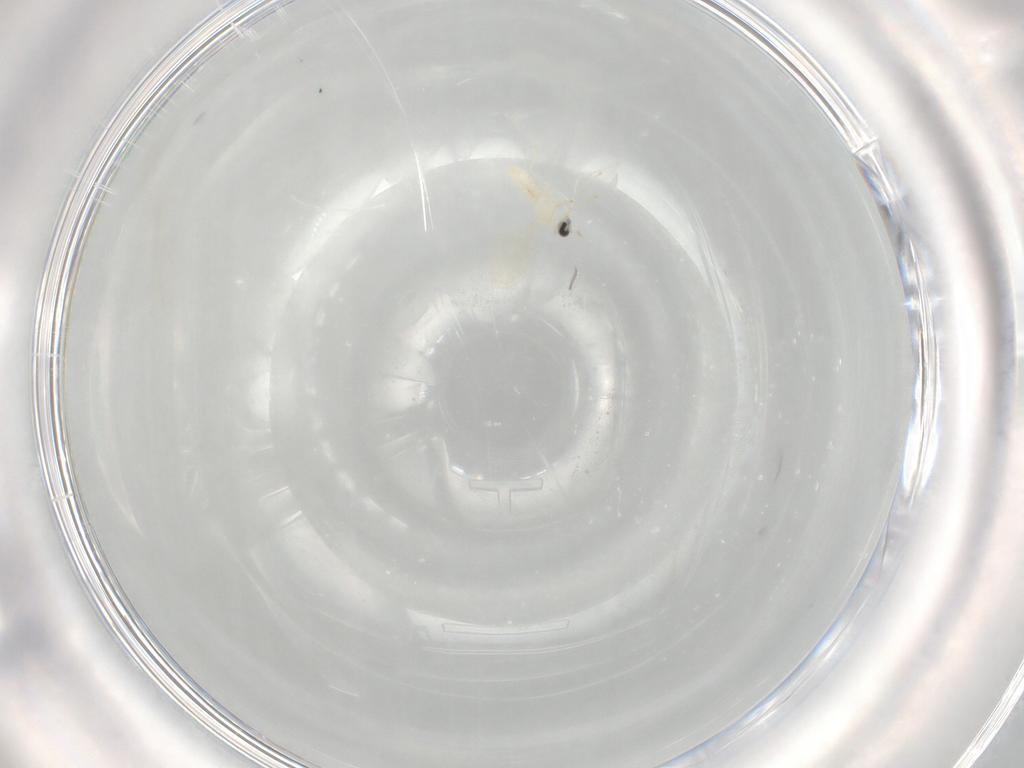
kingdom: Animalia
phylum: Arthropoda
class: Insecta
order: Diptera
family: Cecidomyiidae
